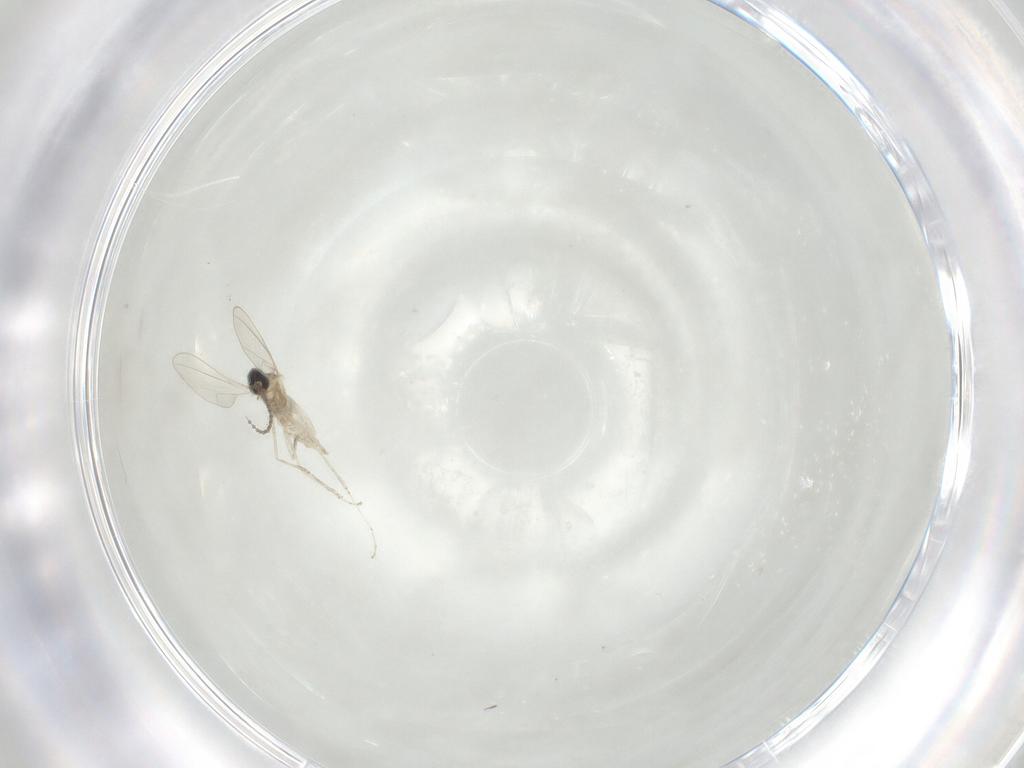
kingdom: Animalia
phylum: Arthropoda
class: Insecta
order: Diptera
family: Cecidomyiidae
